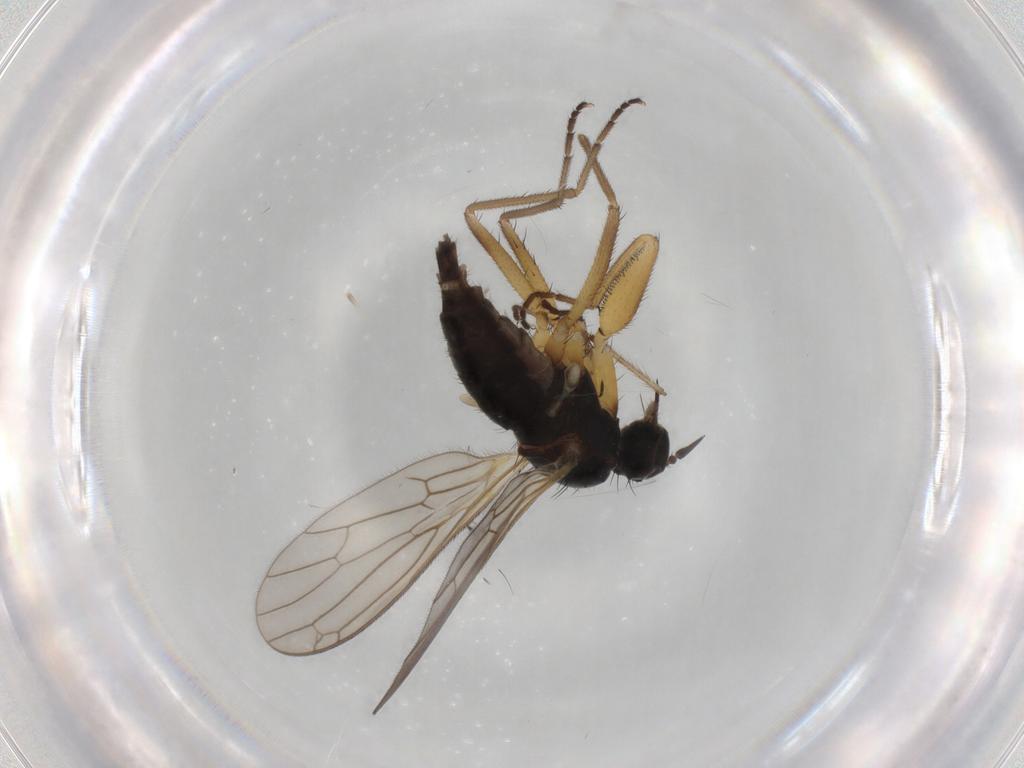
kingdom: Animalia
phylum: Arthropoda
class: Insecta
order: Diptera
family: Empididae
